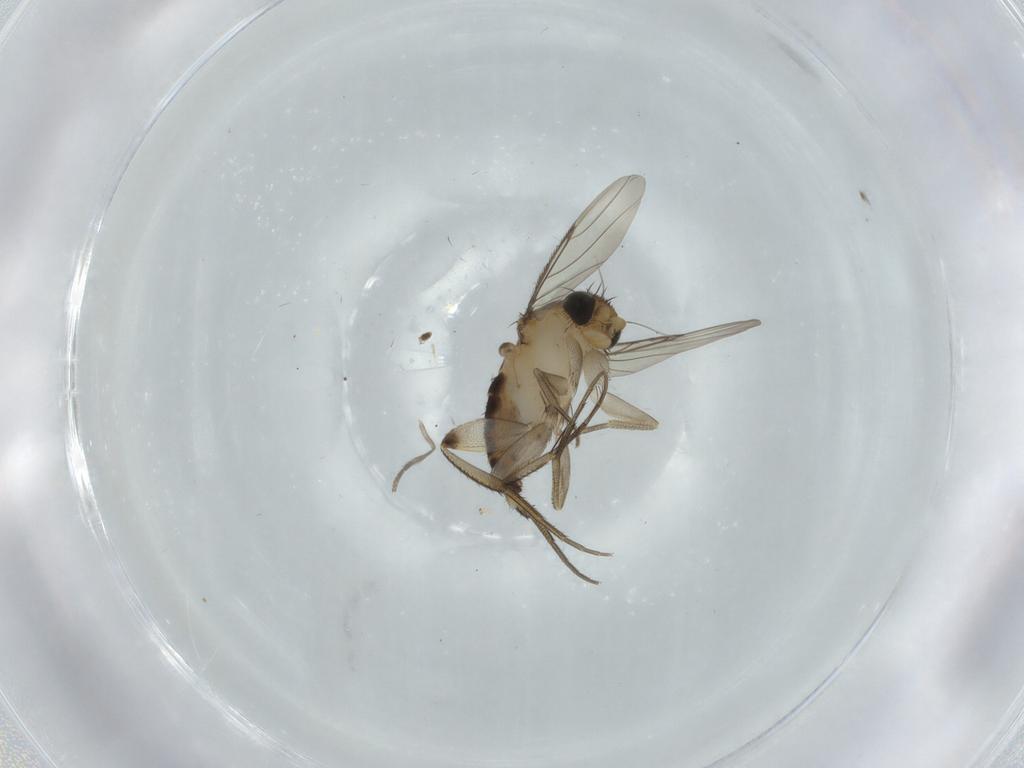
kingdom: Animalia
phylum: Arthropoda
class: Insecta
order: Diptera
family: Phoridae
